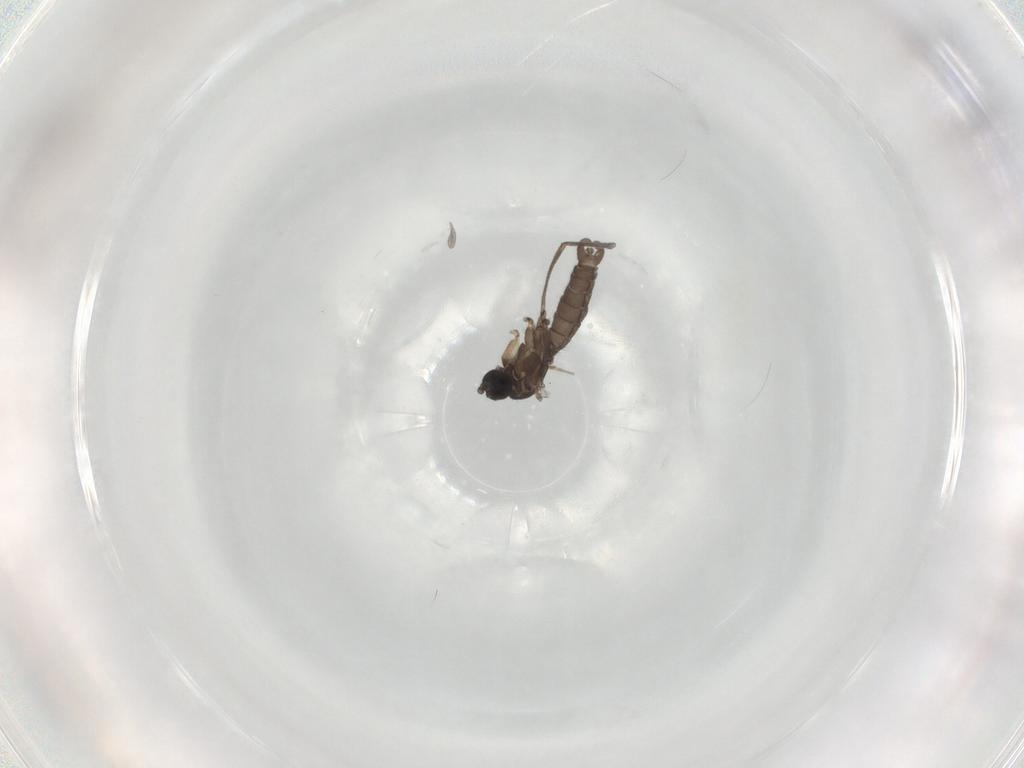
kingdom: Animalia
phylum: Arthropoda
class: Insecta
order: Diptera
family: Sciaridae
